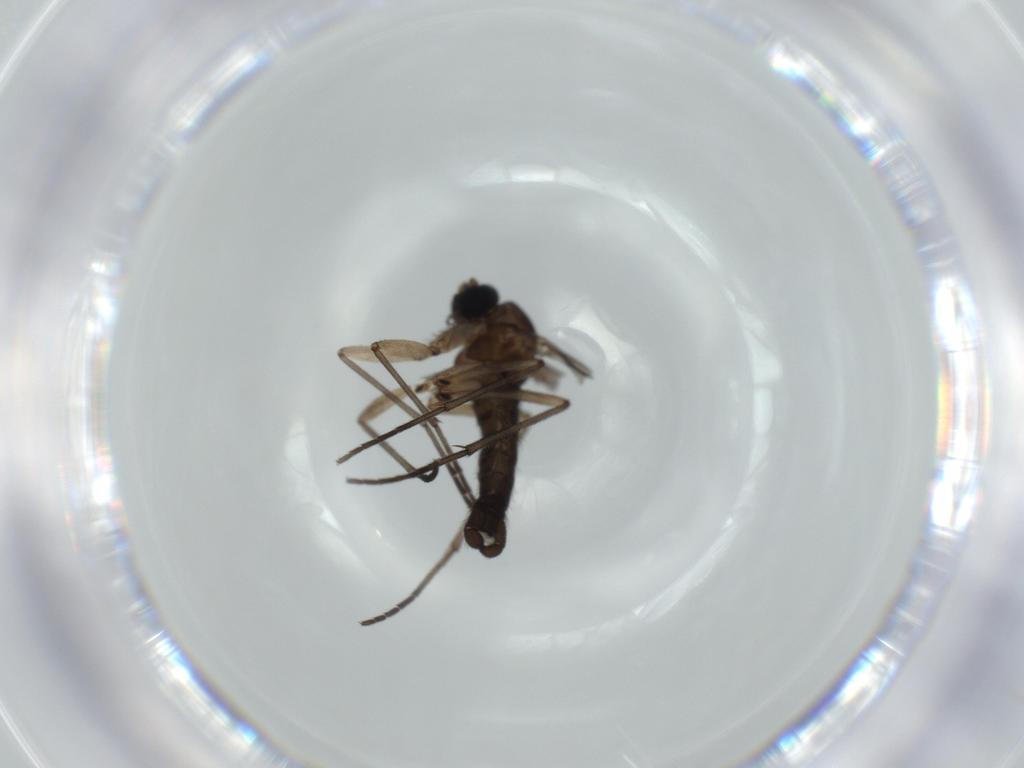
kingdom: Animalia
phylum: Arthropoda
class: Insecta
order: Diptera
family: Sciaridae
